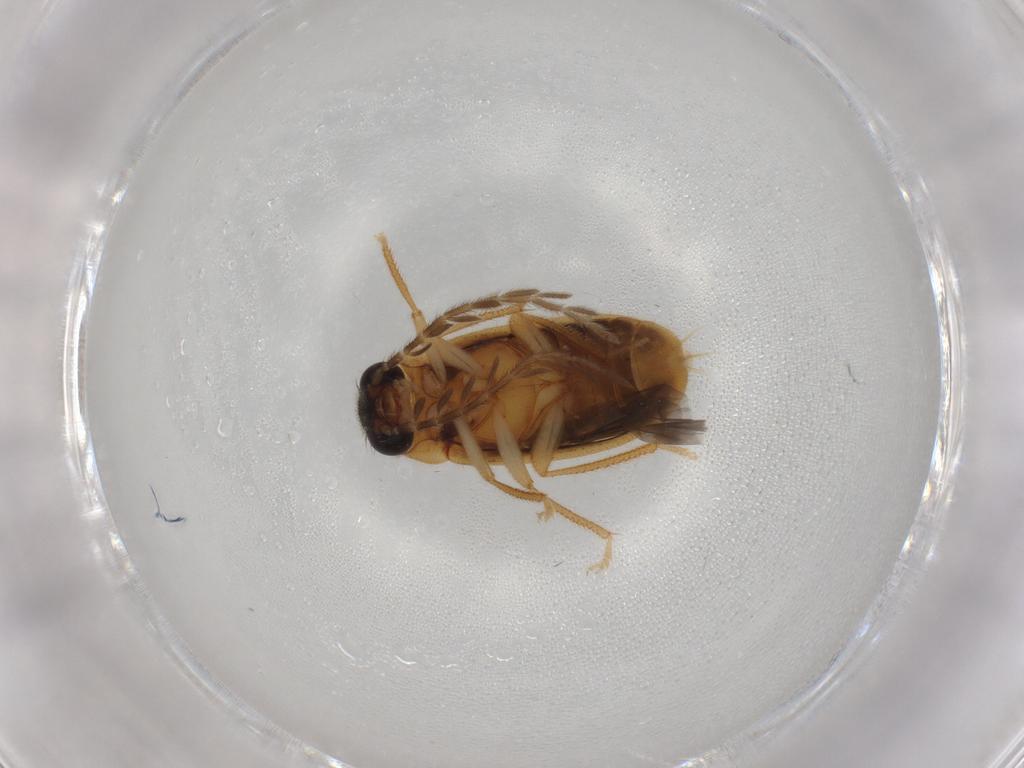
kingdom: Animalia
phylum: Arthropoda
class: Insecta
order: Coleoptera
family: Ptilodactylidae
